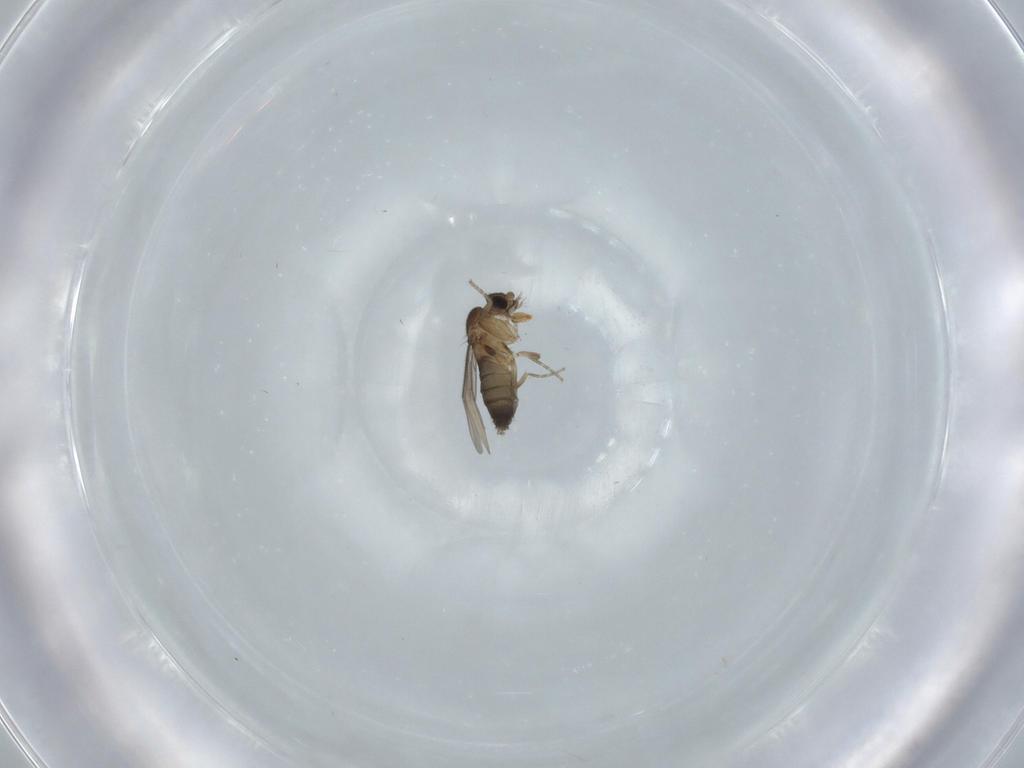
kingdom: Animalia
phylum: Arthropoda
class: Insecta
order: Diptera
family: Phoridae
